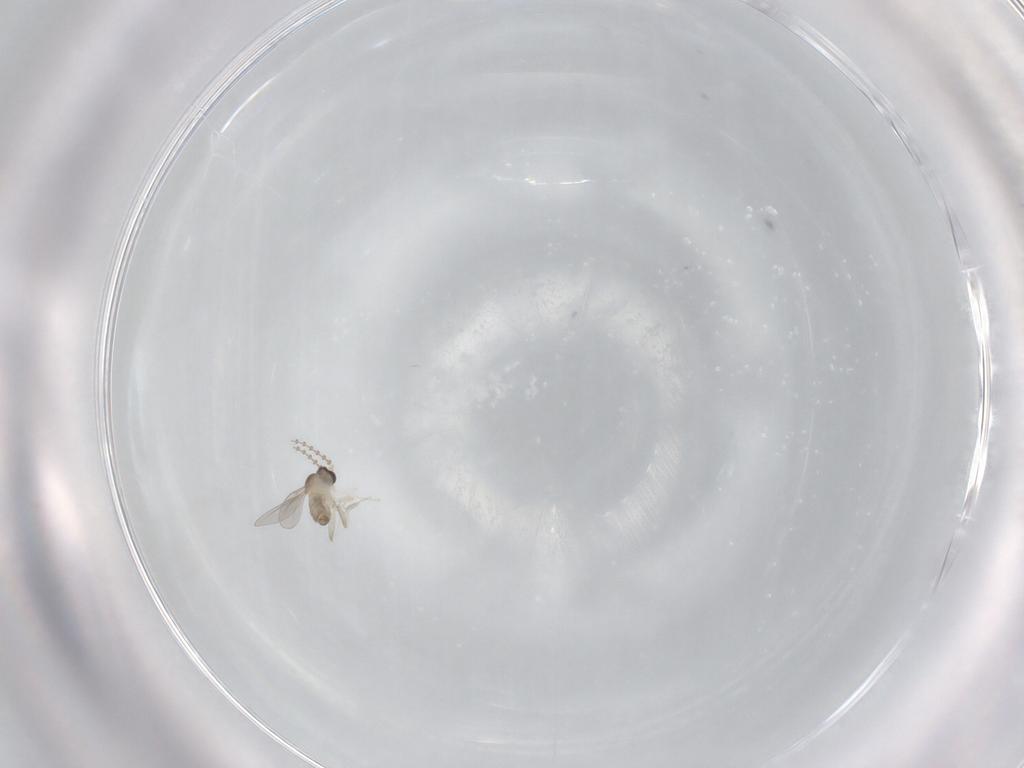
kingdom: Animalia
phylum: Arthropoda
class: Insecta
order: Diptera
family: Cecidomyiidae
